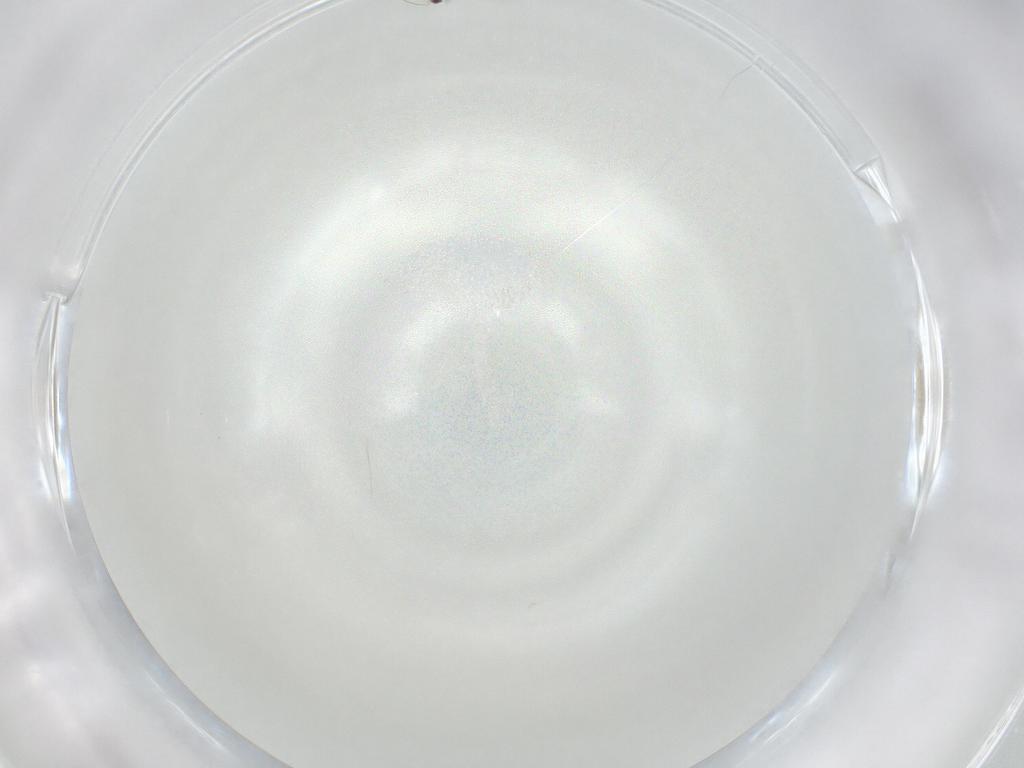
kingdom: Animalia
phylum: Arthropoda
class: Insecta
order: Hymenoptera
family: Mymaridae
